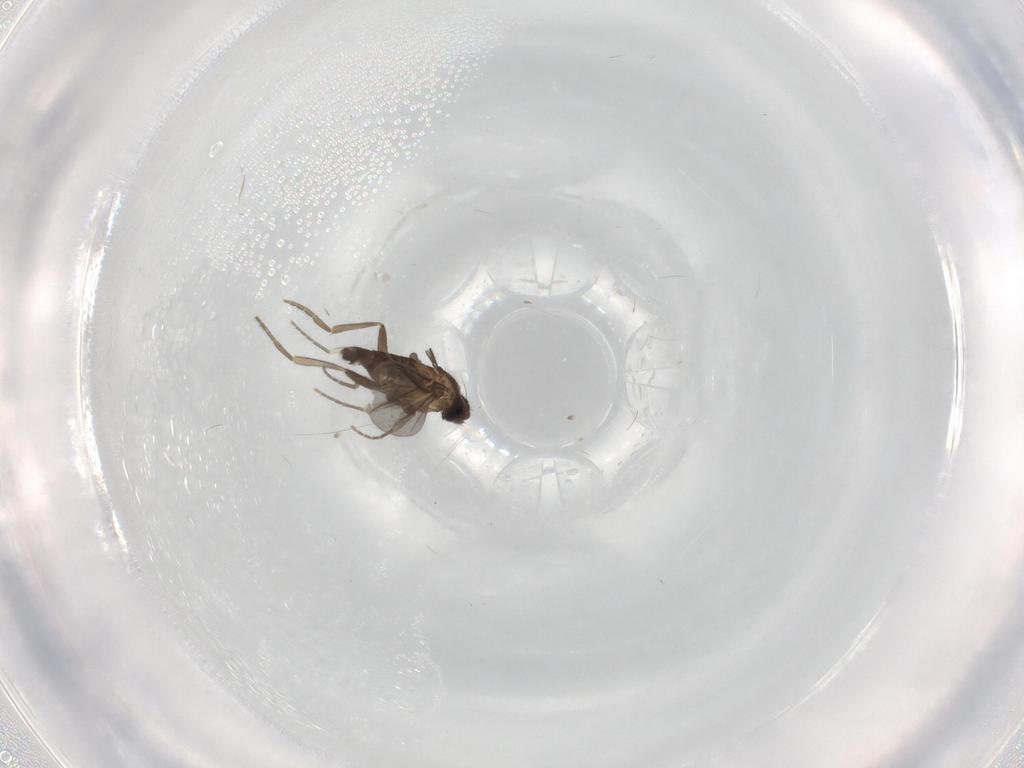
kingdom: Animalia
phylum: Arthropoda
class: Insecta
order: Diptera
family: Phoridae
